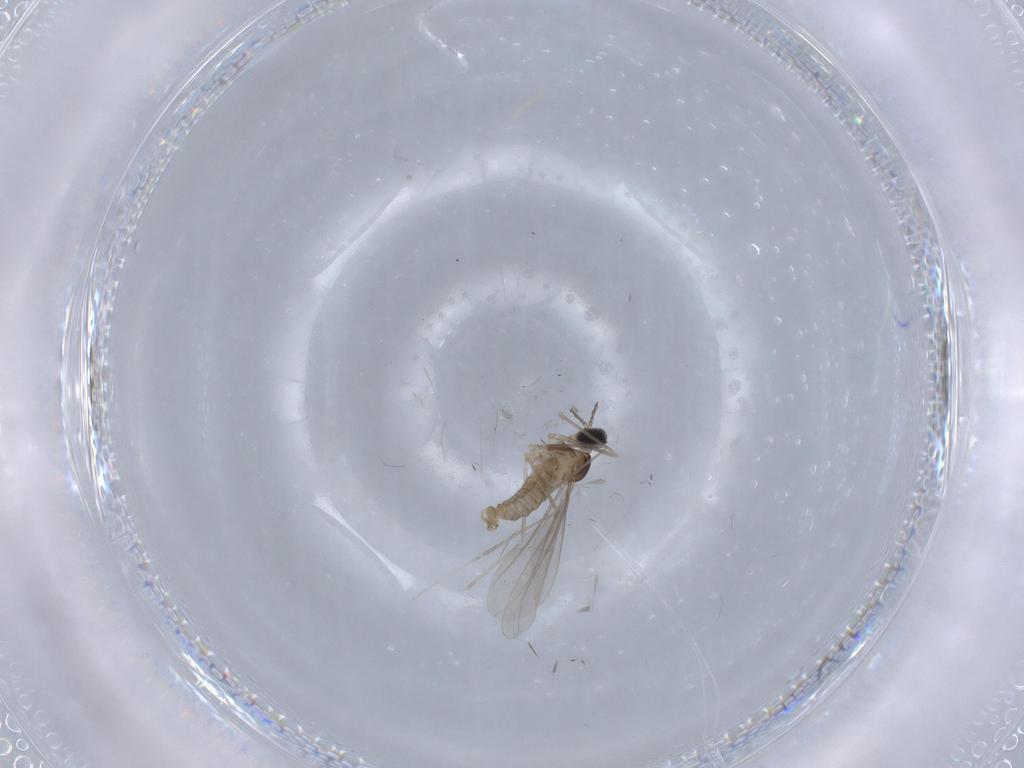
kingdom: Animalia
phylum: Arthropoda
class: Insecta
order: Diptera
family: Cecidomyiidae
